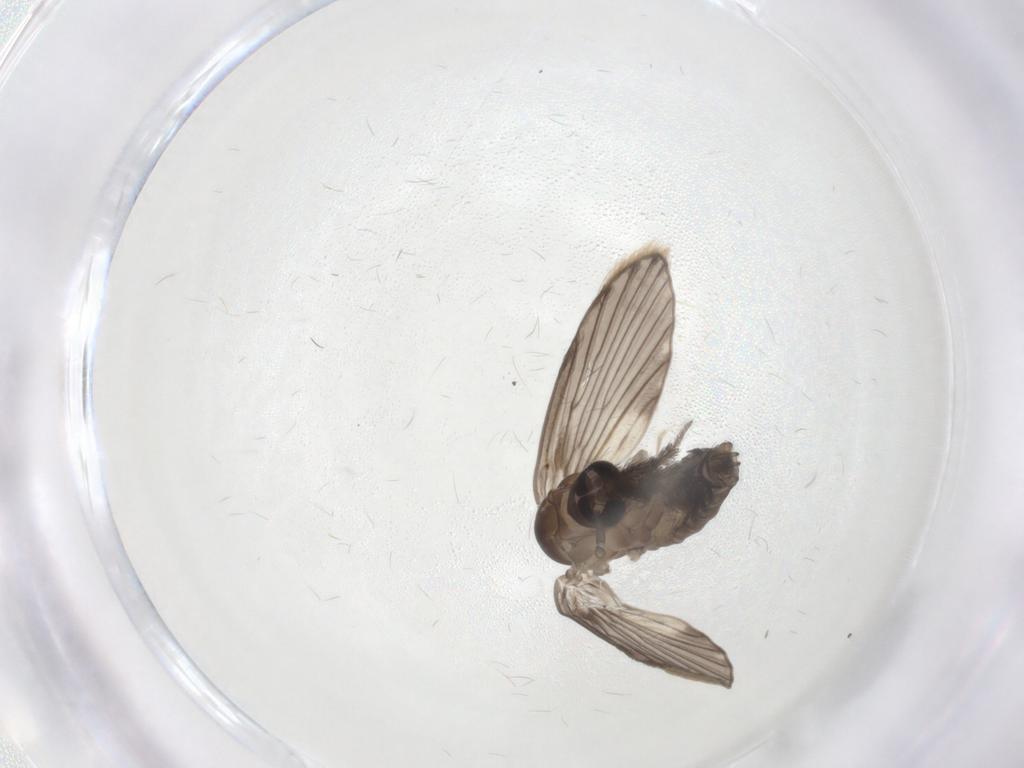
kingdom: Animalia
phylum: Arthropoda
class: Insecta
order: Diptera
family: Psychodidae
